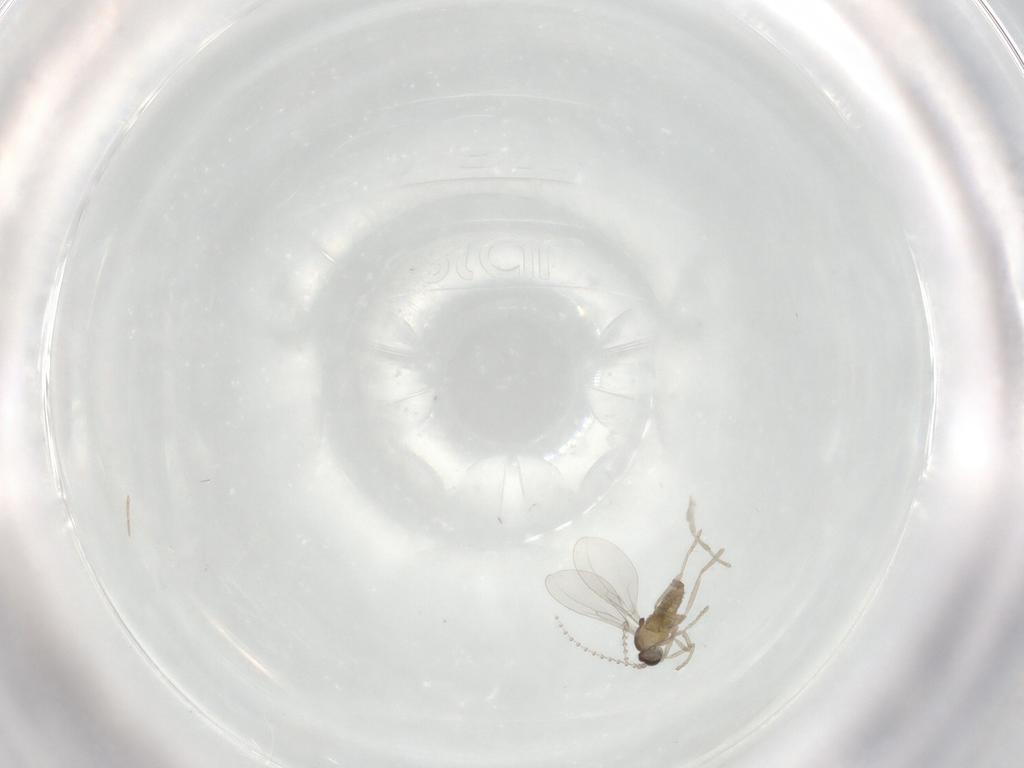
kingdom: Animalia
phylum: Arthropoda
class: Insecta
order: Diptera
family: Cecidomyiidae
